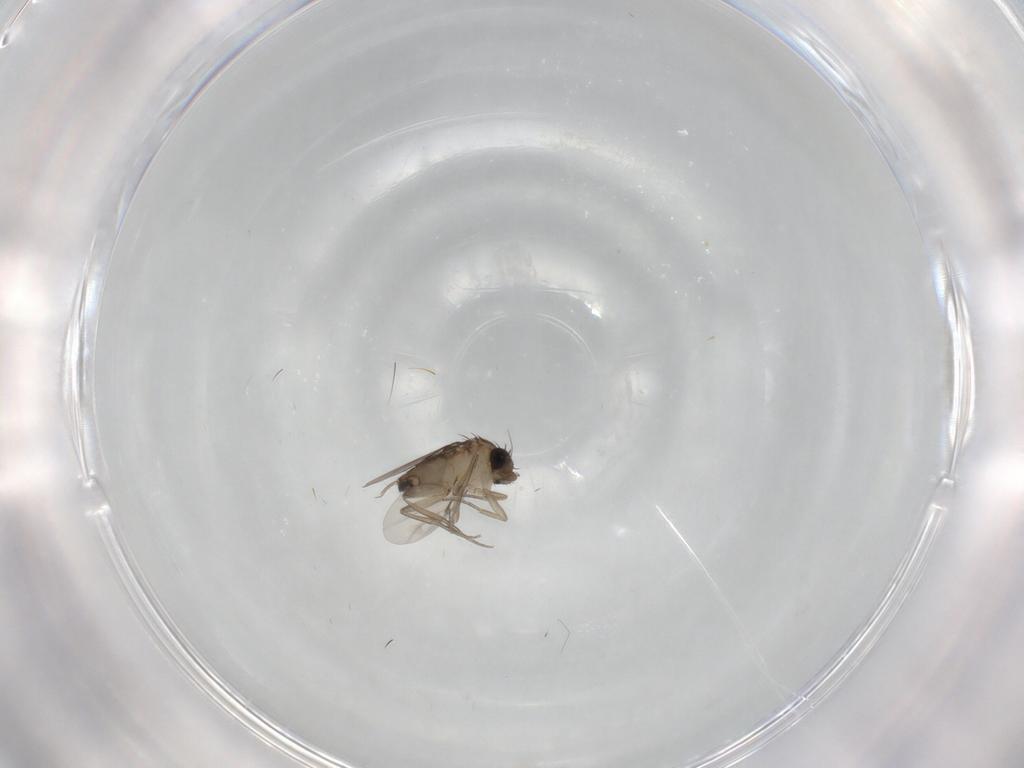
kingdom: Animalia
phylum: Arthropoda
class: Insecta
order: Diptera
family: Phoridae
